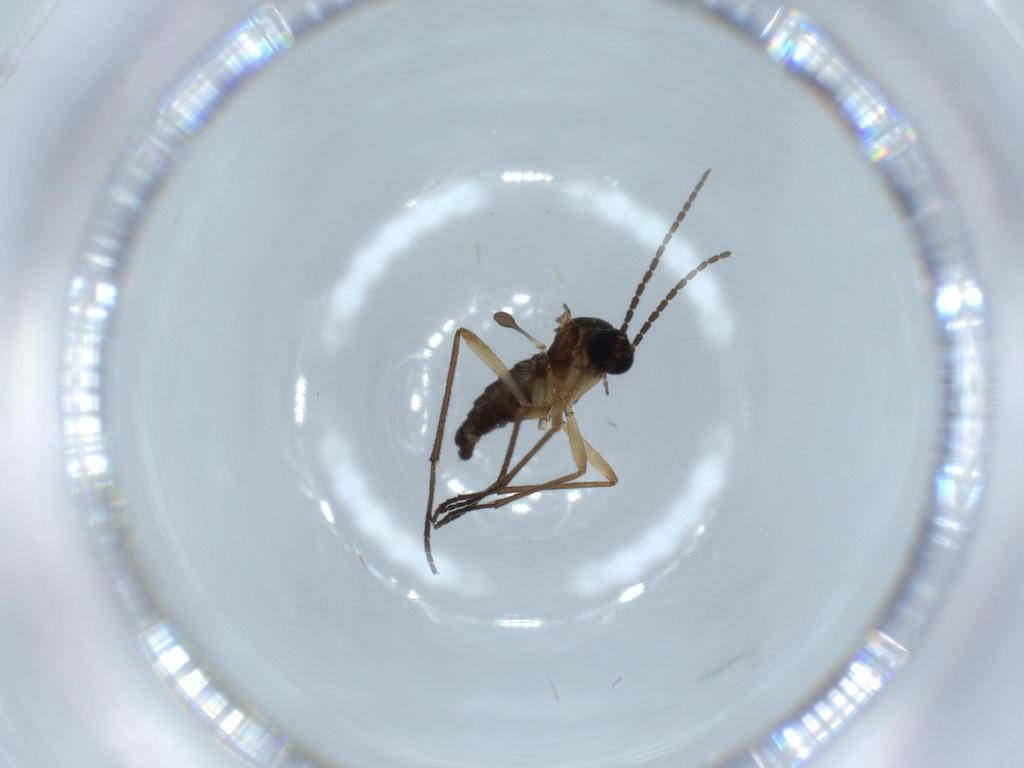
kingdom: Animalia
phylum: Arthropoda
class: Insecta
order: Diptera
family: Sciaridae
